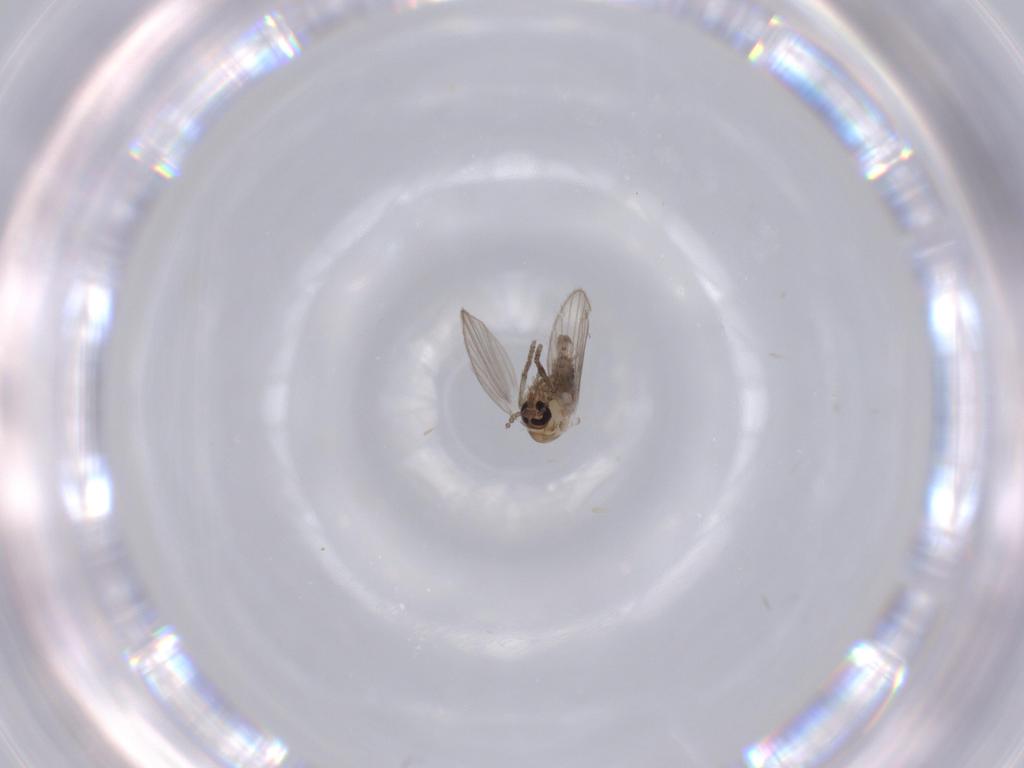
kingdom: Animalia
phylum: Arthropoda
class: Insecta
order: Diptera
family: Psychodidae
